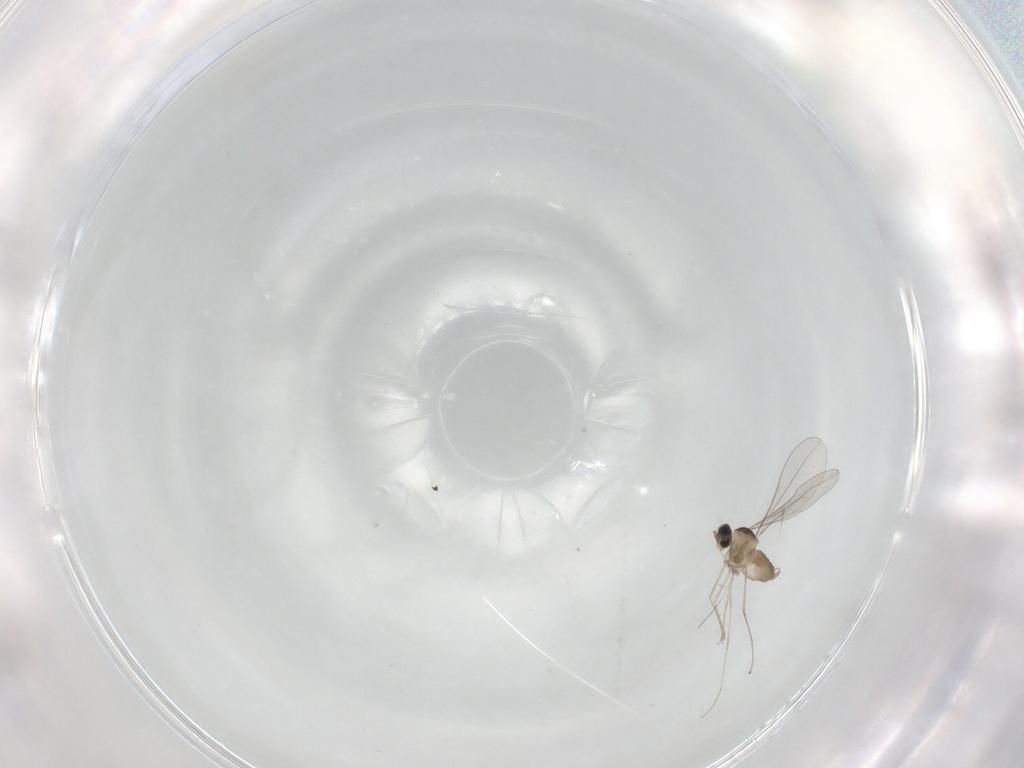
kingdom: Animalia
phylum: Arthropoda
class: Insecta
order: Diptera
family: Cecidomyiidae
